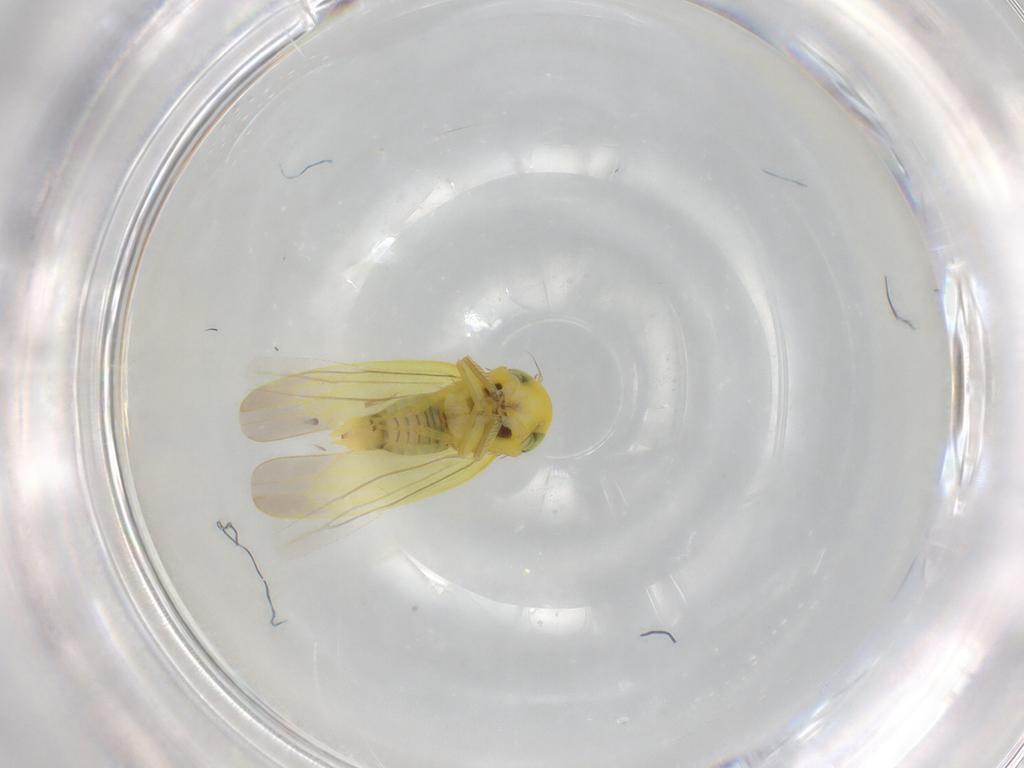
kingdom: Animalia
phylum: Arthropoda
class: Insecta
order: Hemiptera
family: Cicadellidae
